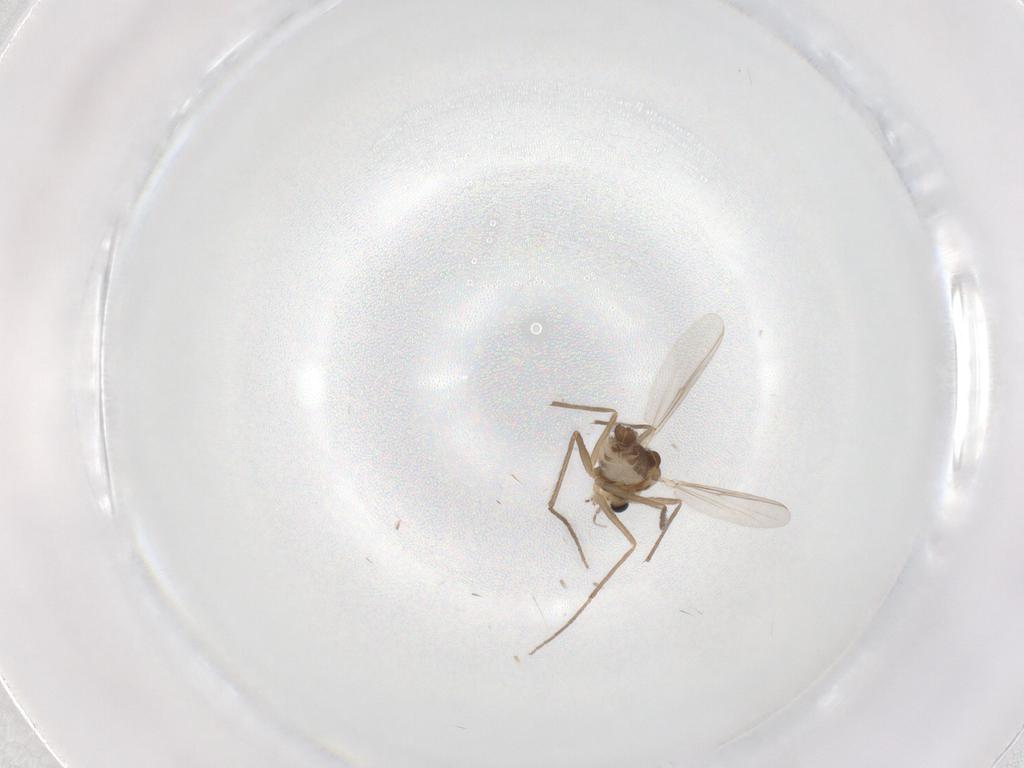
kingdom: Animalia
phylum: Arthropoda
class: Insecta
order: Diptera
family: Chironomidae
